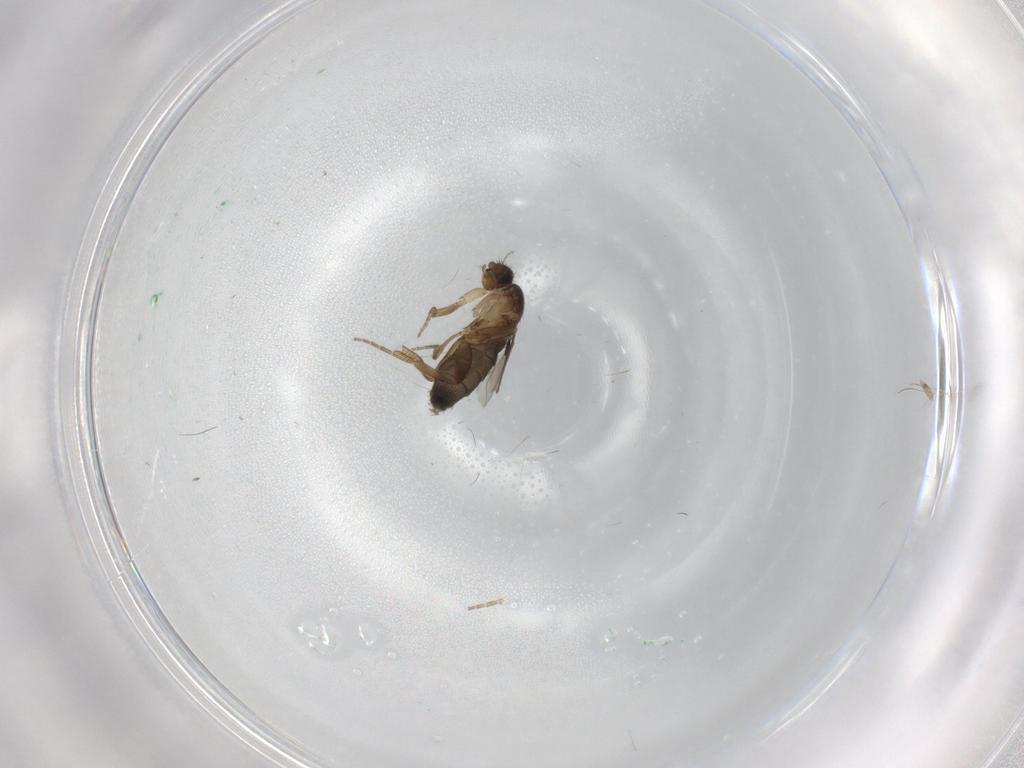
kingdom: Animalia
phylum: Arthropoda
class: Insecta
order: Diptera
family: Phoridae
